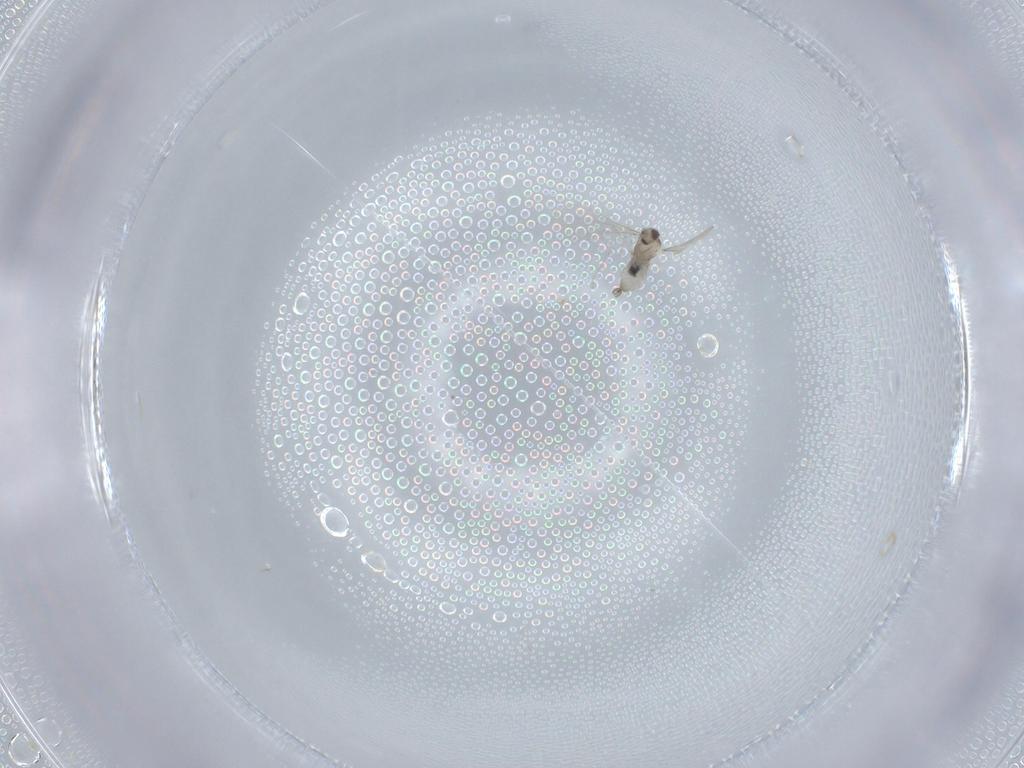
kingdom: Animalia
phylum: Arthropoda
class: Insecta
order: Diptera
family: Cecidomyiidae
